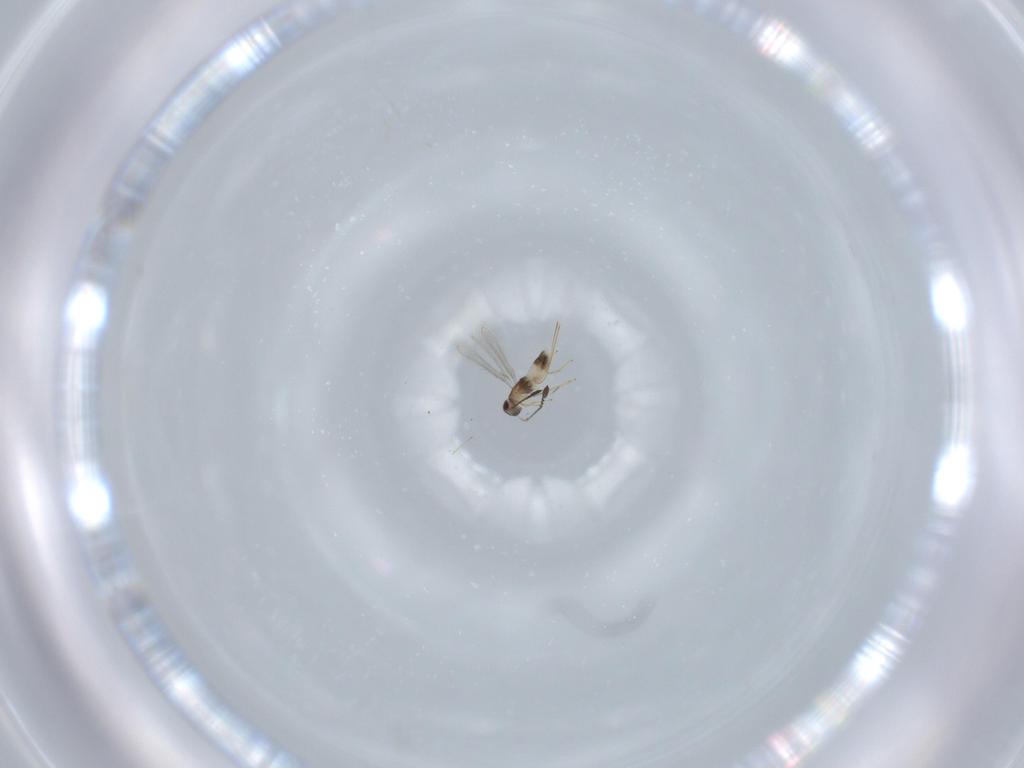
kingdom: Animalia
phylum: Arthropoda
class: Insecta
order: Hymenoptera
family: Mymaridae
